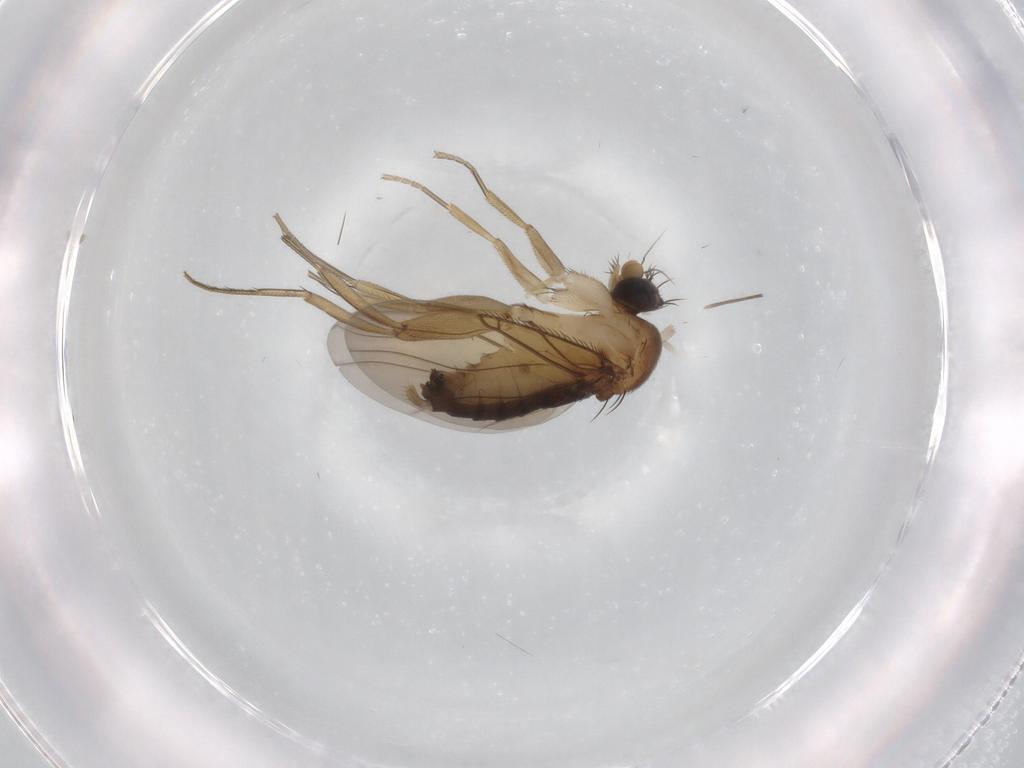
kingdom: Animalia
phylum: Arthropoda
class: Insecta
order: Diptera
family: Phoridae
